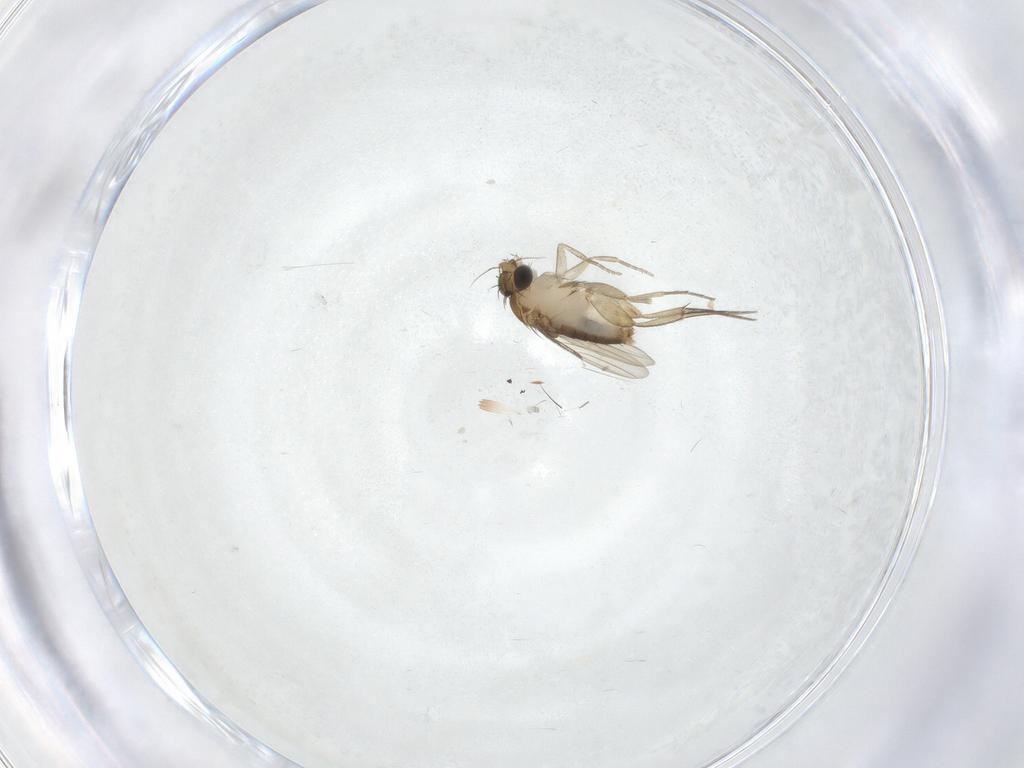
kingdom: Animalia
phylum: Arthropoda
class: Insecta
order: Diptera
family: Phoridae
